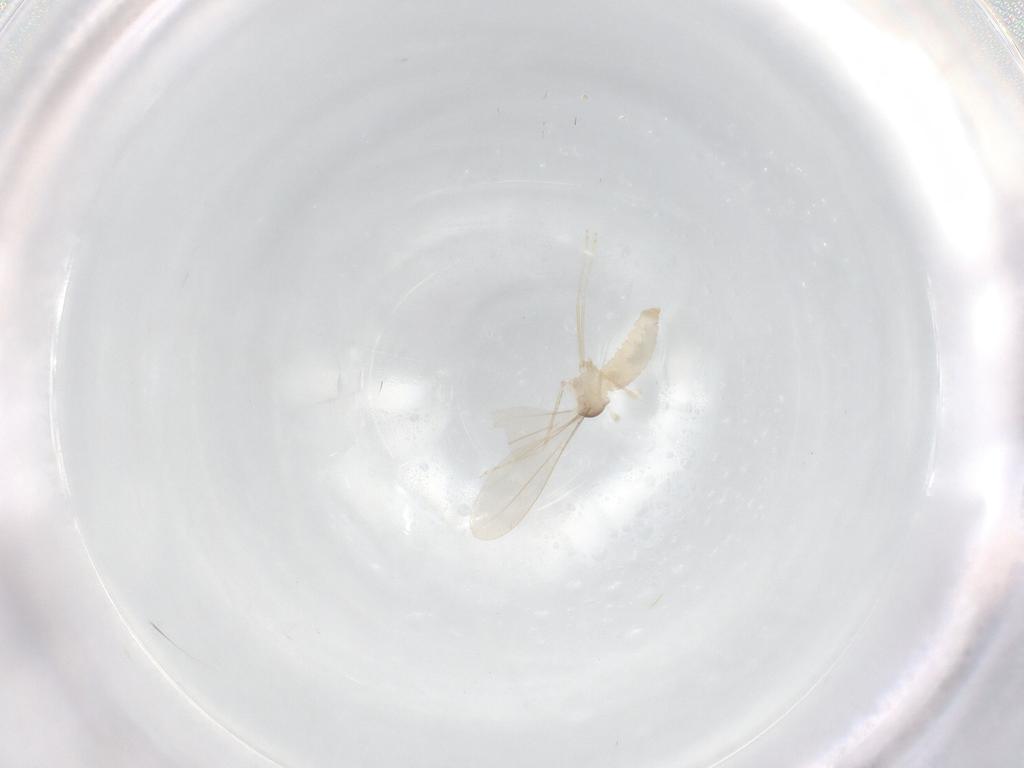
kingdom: Animalia
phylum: Arthropoda
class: Insecta
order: Diptera
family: Cecidomyiidae
